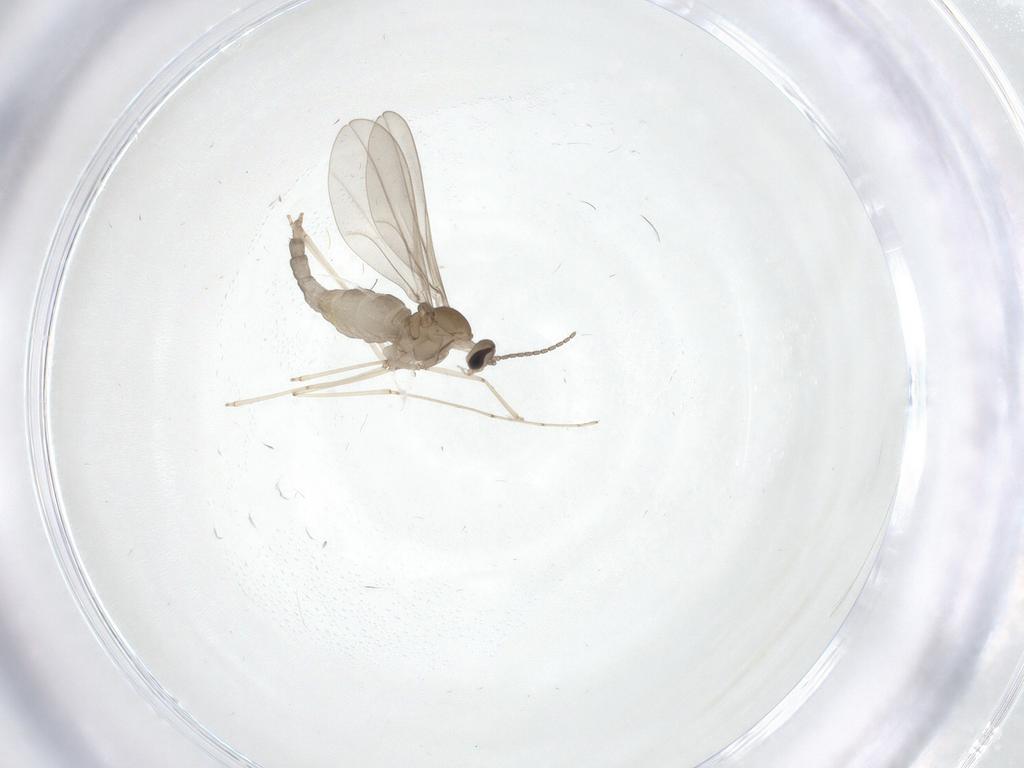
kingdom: Animalia
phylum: Arthropoda
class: Insecta
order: Diptera
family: Cecidomyiidae
